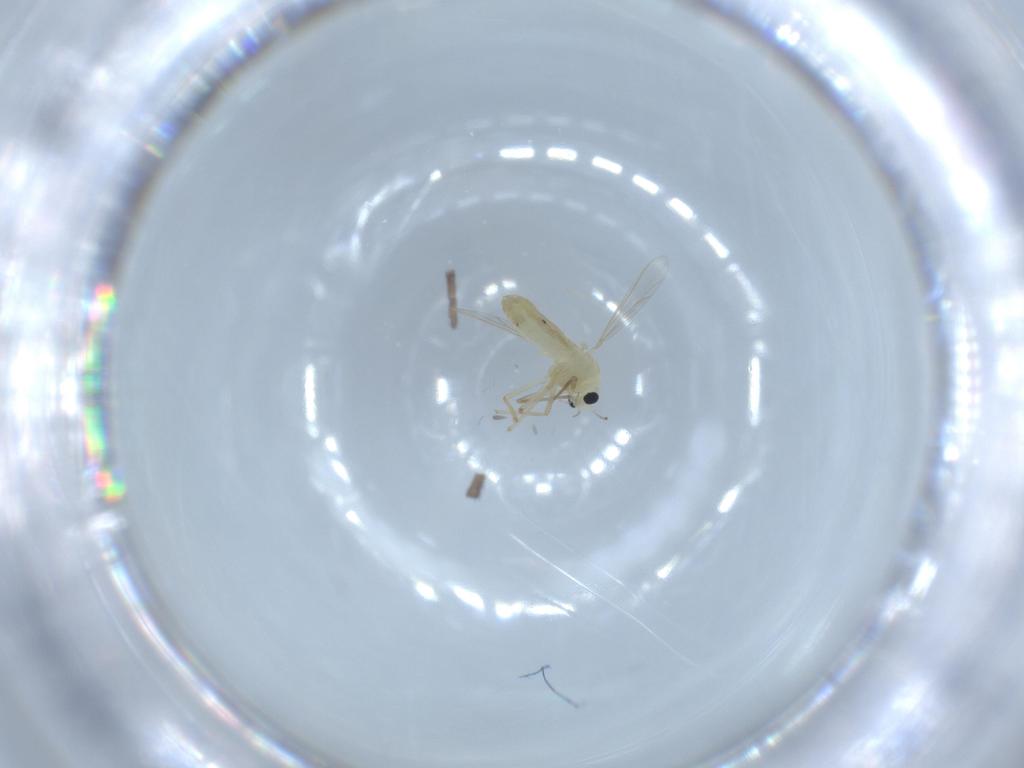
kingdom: Animalia
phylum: Arthropoda
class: Insecta
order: Diptera
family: Chironomidae
